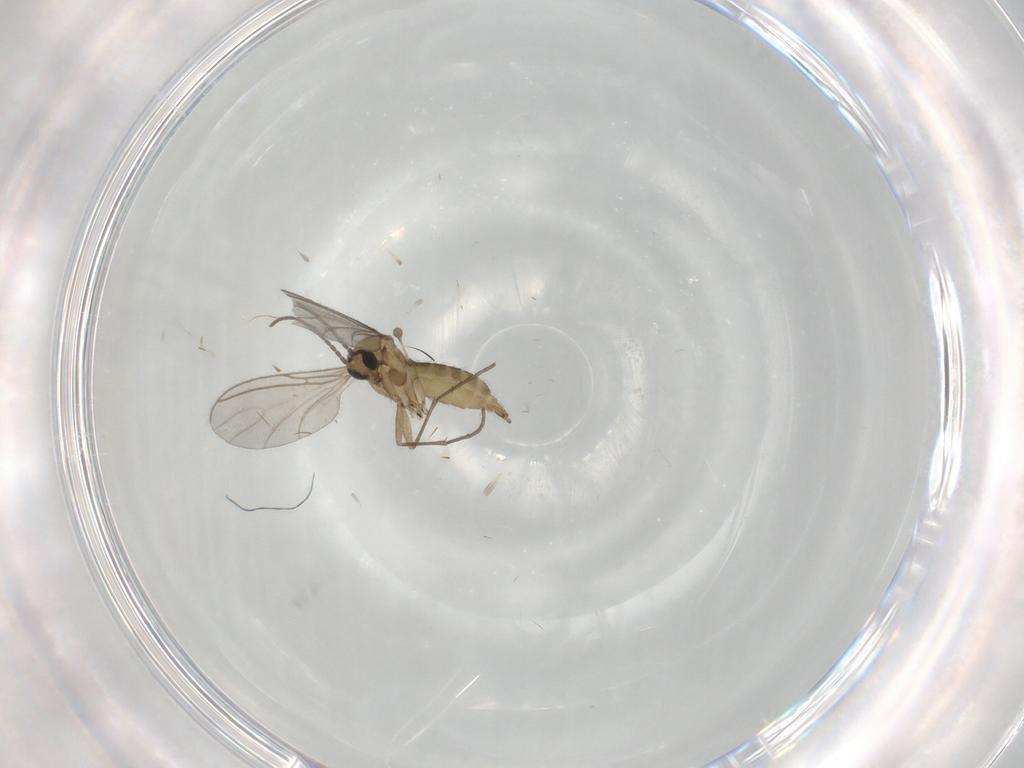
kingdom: Animalia
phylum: Arthropoda
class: Insecta
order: Diptera
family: Sciaridae
